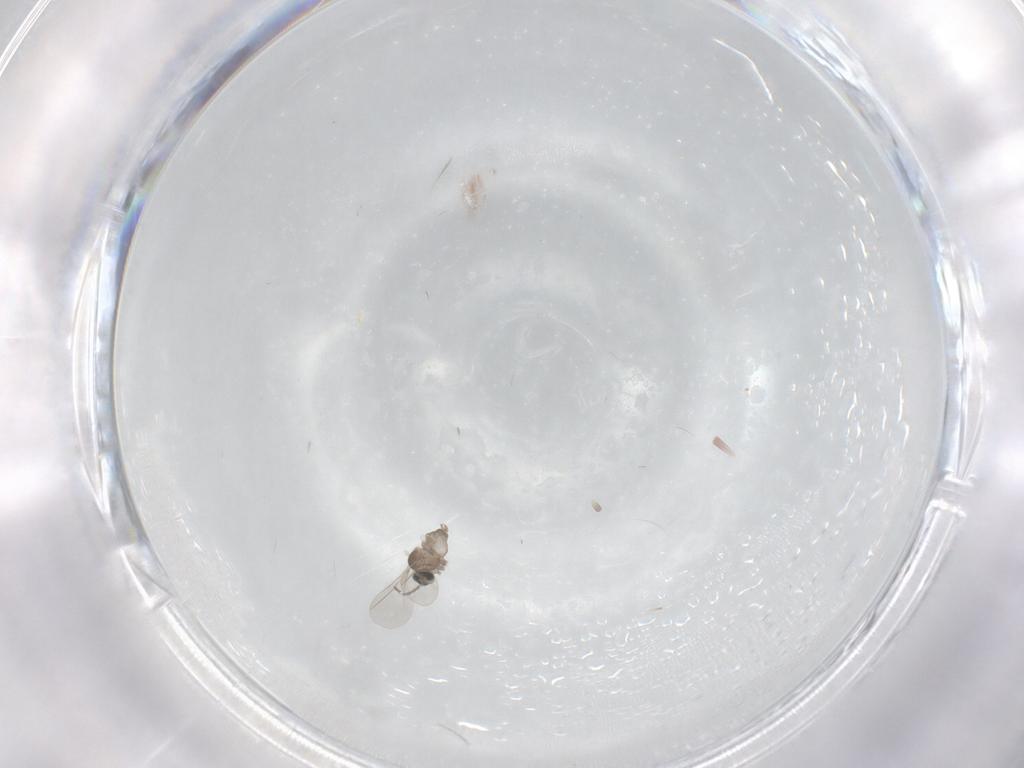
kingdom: Animalia
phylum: Arthropoda
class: Insecta
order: Diptera
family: Cecidomyiidae
